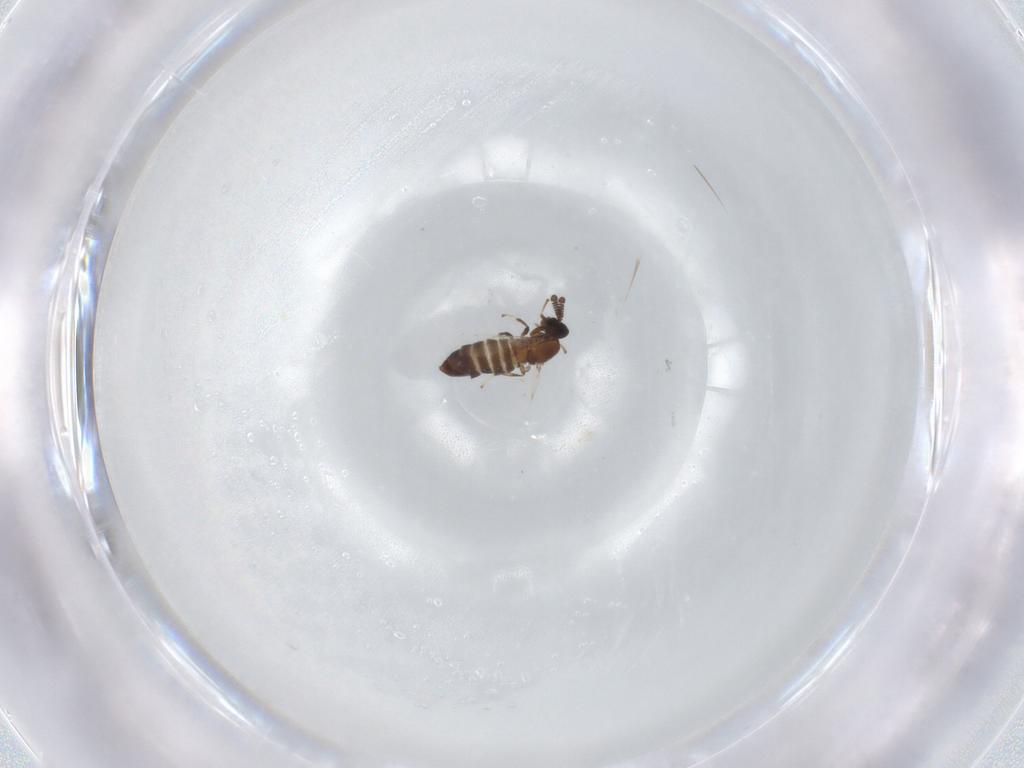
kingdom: Animalia
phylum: Arthropoda
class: Insecta
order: Diptera
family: Scatopsidae
